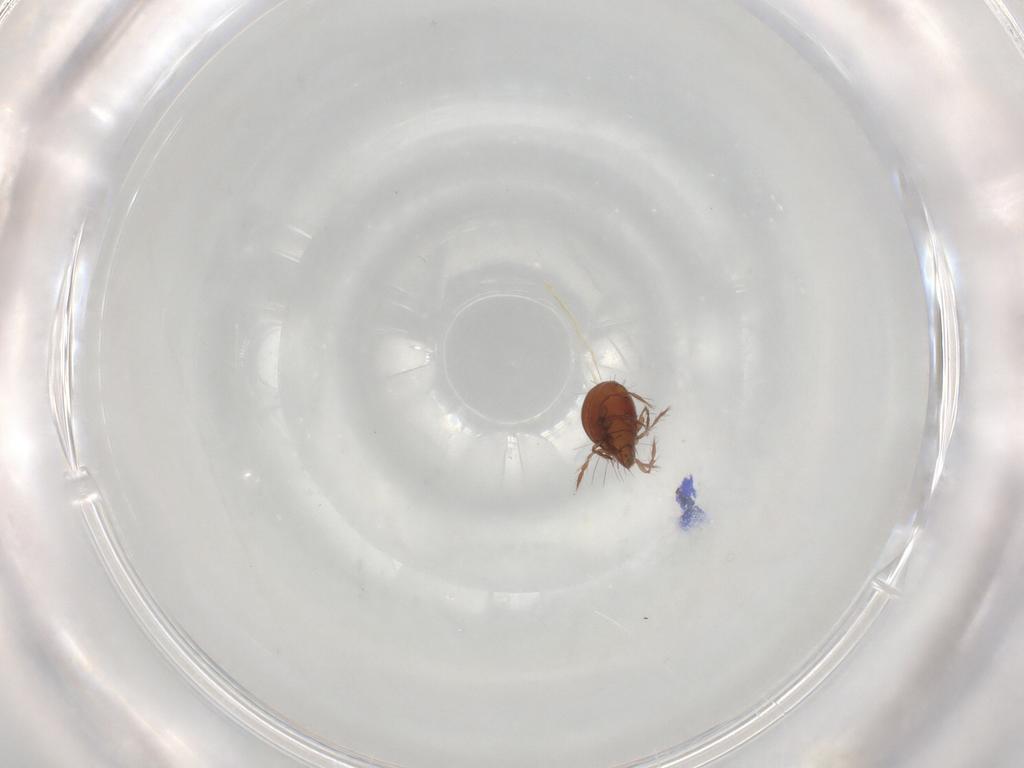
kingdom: Animalia
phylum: Arthropoda
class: Arachnida
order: Sarcoptiformes
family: Ceratoppiidae
